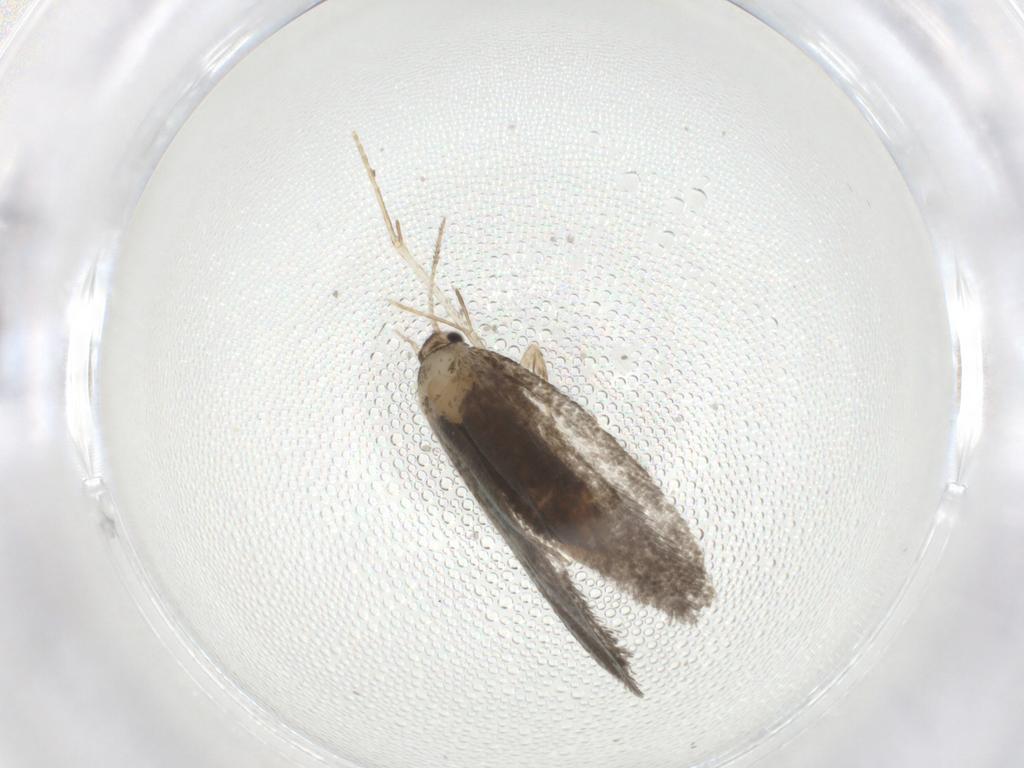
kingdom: Animalia
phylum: Arthropoda
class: Insecta
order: Lepidoptera
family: Psychidae
